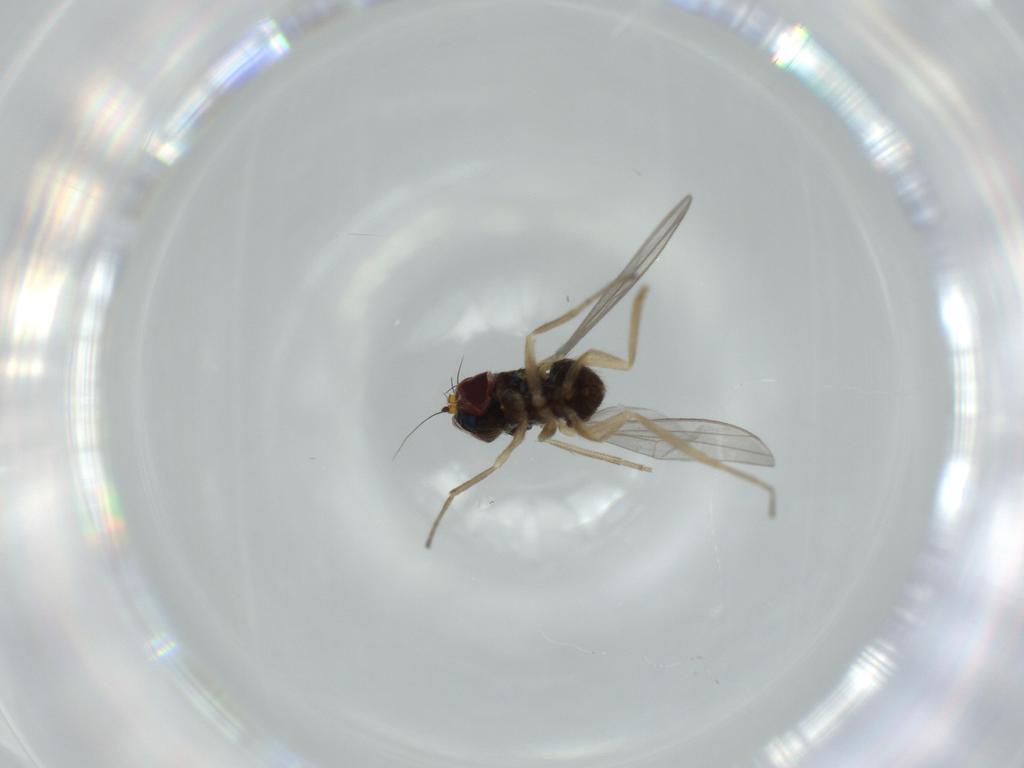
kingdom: Animalia
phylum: Arthropoda
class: Insecta
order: Diptera
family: Dolichopodidae
